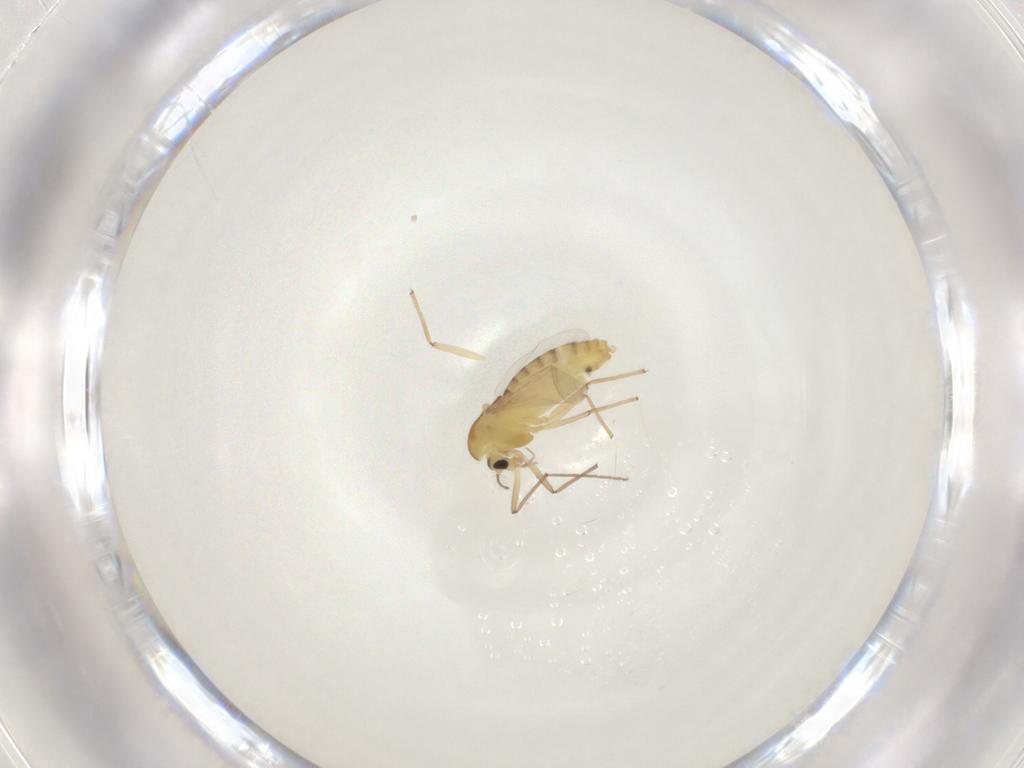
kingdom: Animalia
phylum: Arthropoda
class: Insecta
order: Diptera
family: Chironomidae
